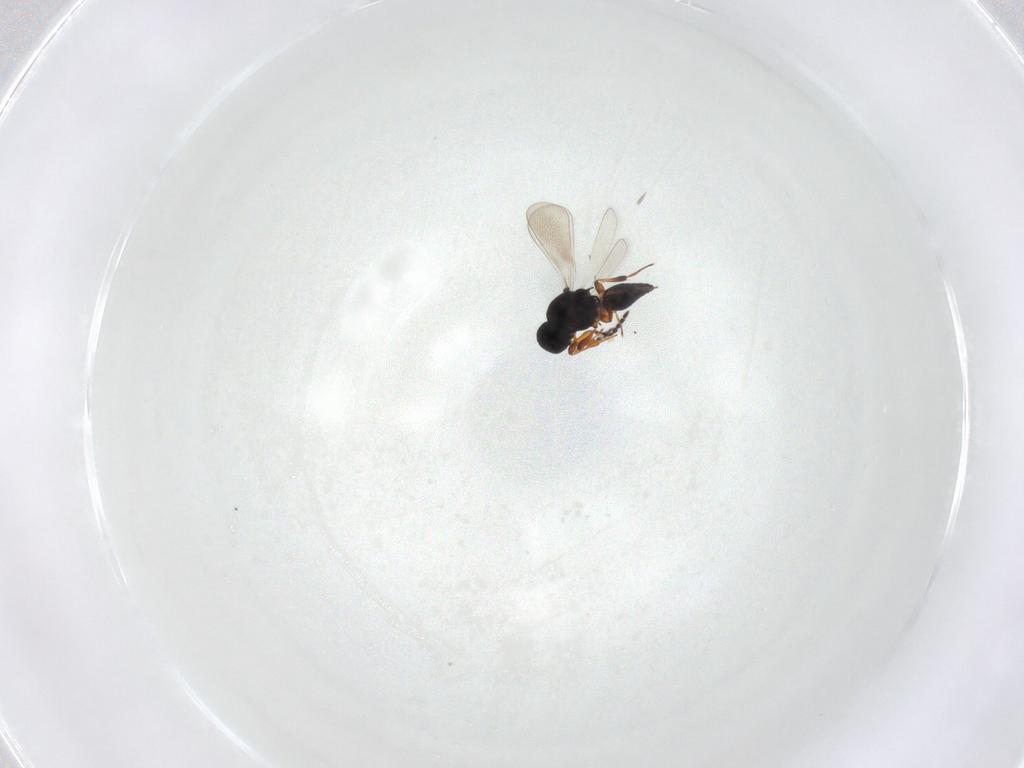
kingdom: Animalia
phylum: Arthropoda
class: Insecta
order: Hymenoptera
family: Platygastridae
